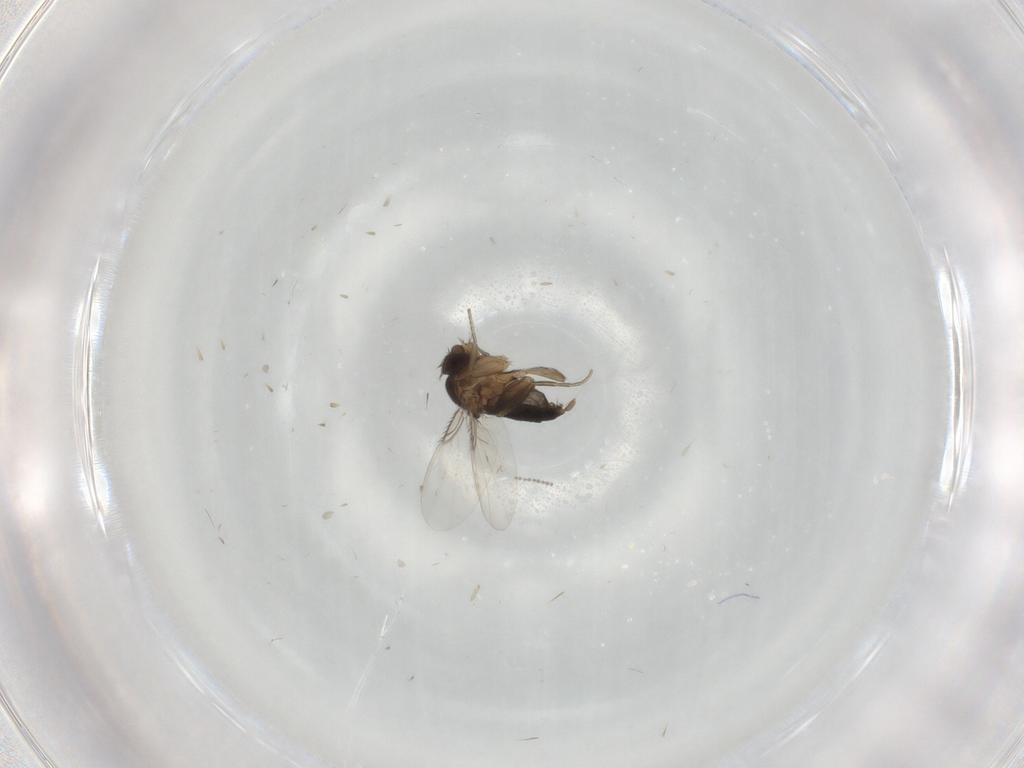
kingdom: Animalia
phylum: Arthropoda
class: Insecta
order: Diptera
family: Phoridae
